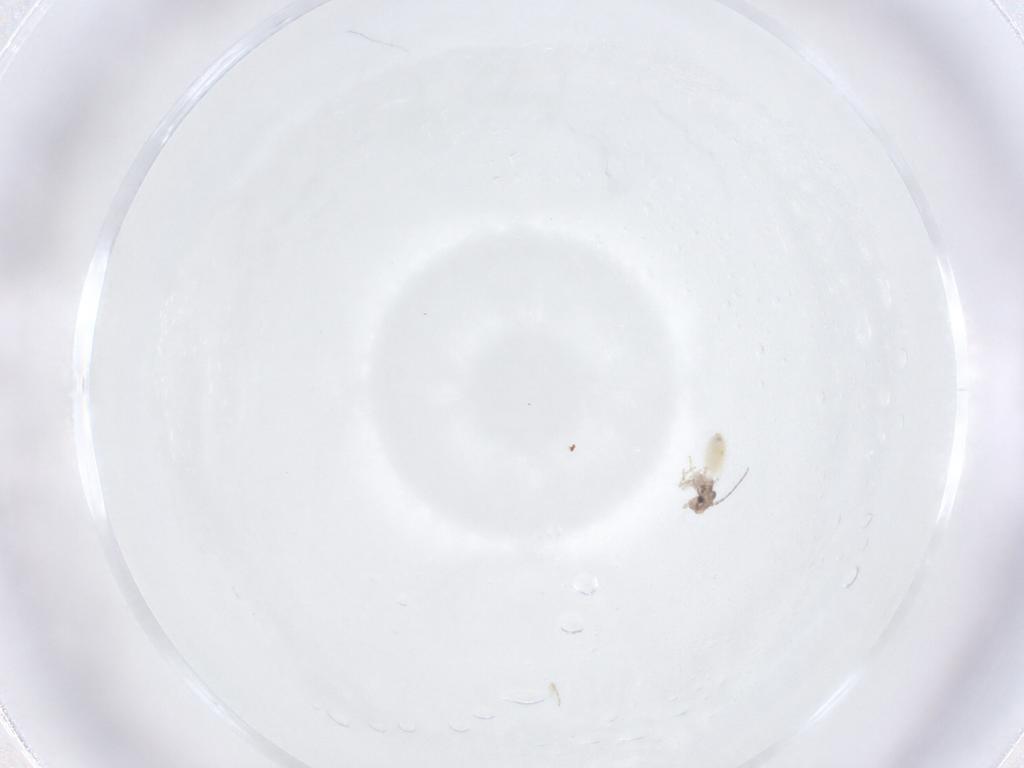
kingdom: Animalia
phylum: Arthropoda
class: Insecta
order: Psocodea
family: Lepidopsocidae
